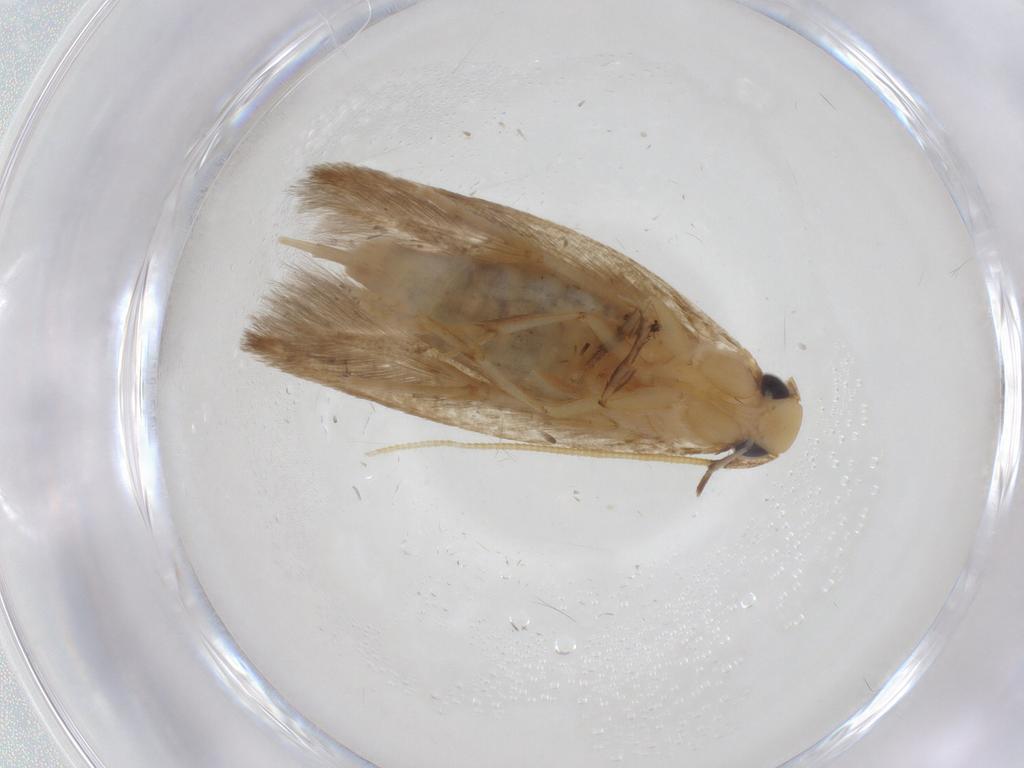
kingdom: Animalia
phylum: Arthropoda
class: Insecta
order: Lepidoptera
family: Tineidae
